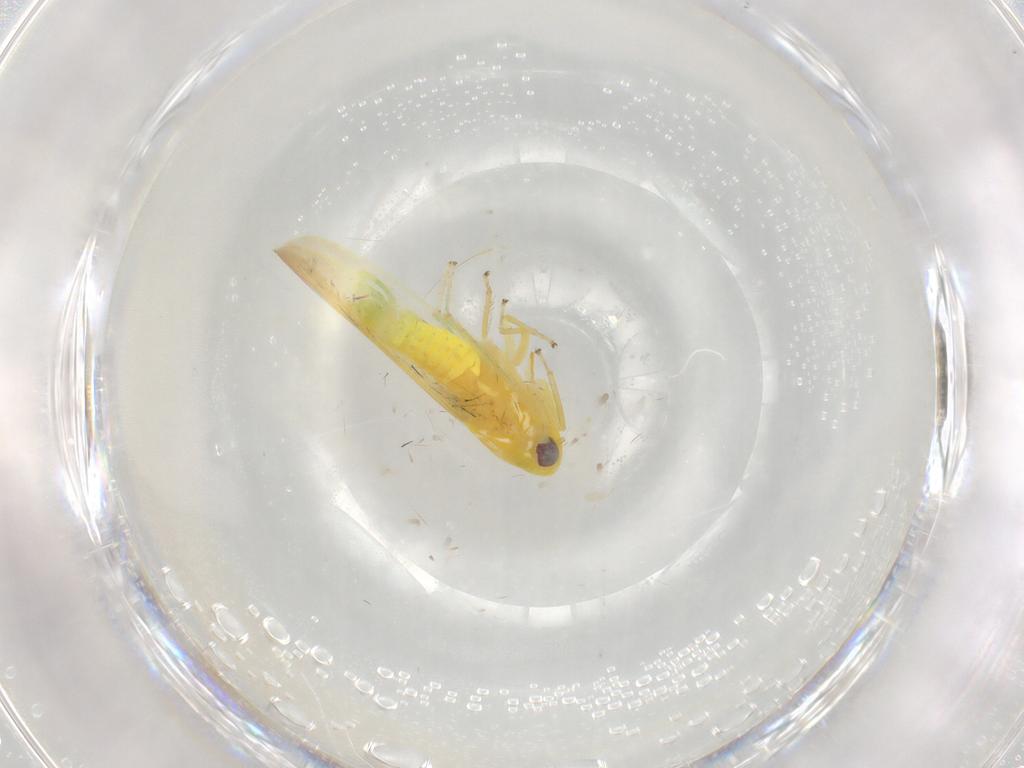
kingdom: Animalia
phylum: Arthropoda
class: Insecta
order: Hemiptera
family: Cicadellidae
